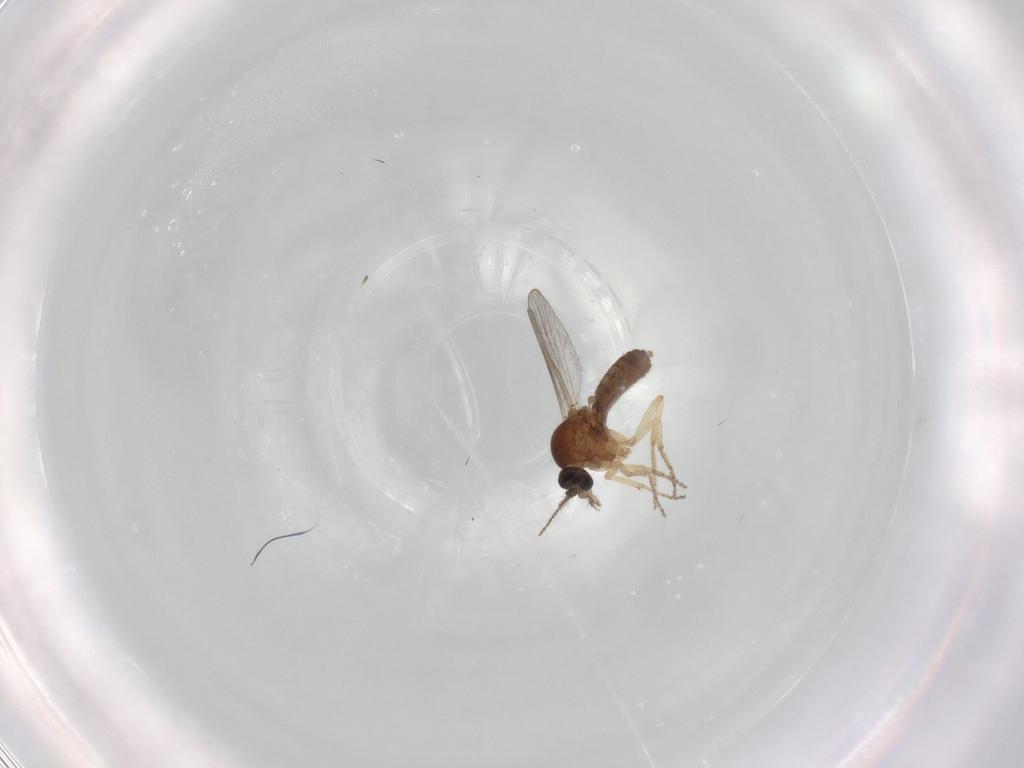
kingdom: Animalia
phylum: Arthropoda
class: Insecta
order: Diptera
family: Ceratopogonidae
